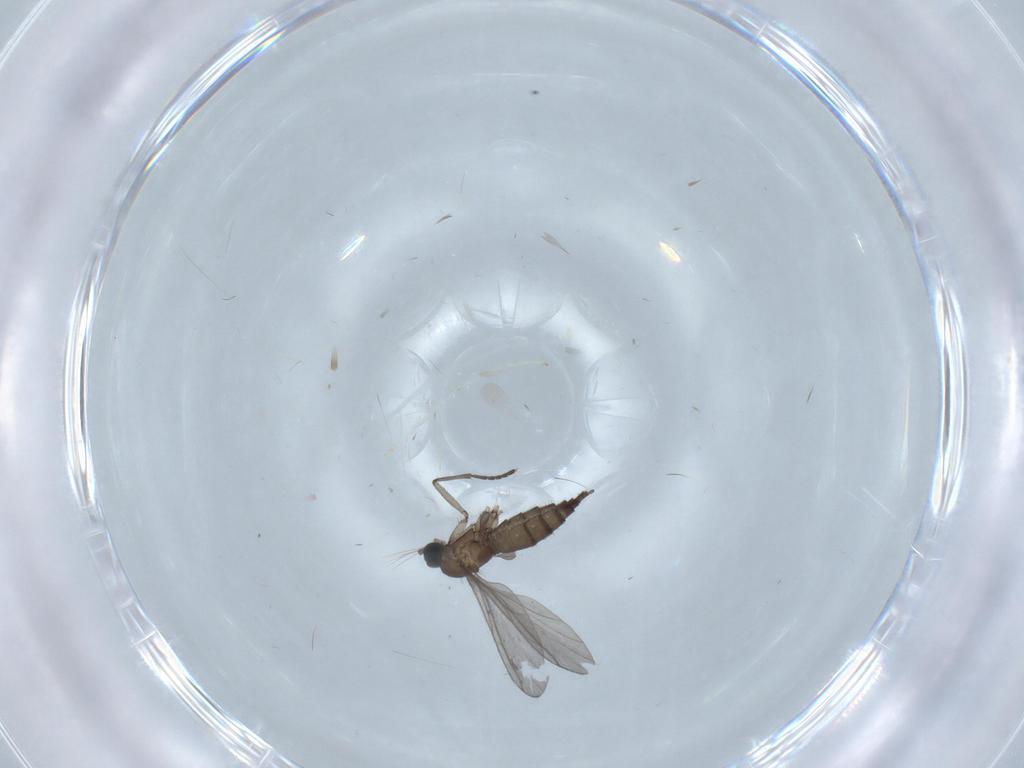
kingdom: Animalia
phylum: Arthropoda
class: Insecta
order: Diptera
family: Cecidomyiidae
